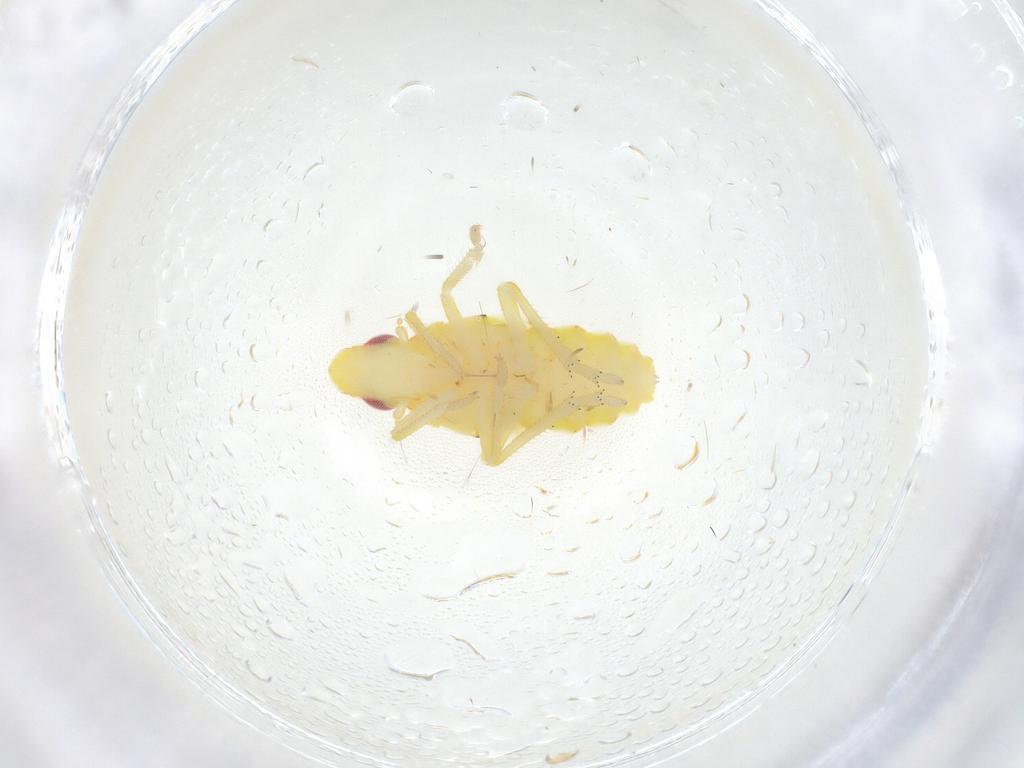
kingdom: Animalia
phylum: Arthropoda
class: Insecta
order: Hemiptera
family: Tropiduchidae
